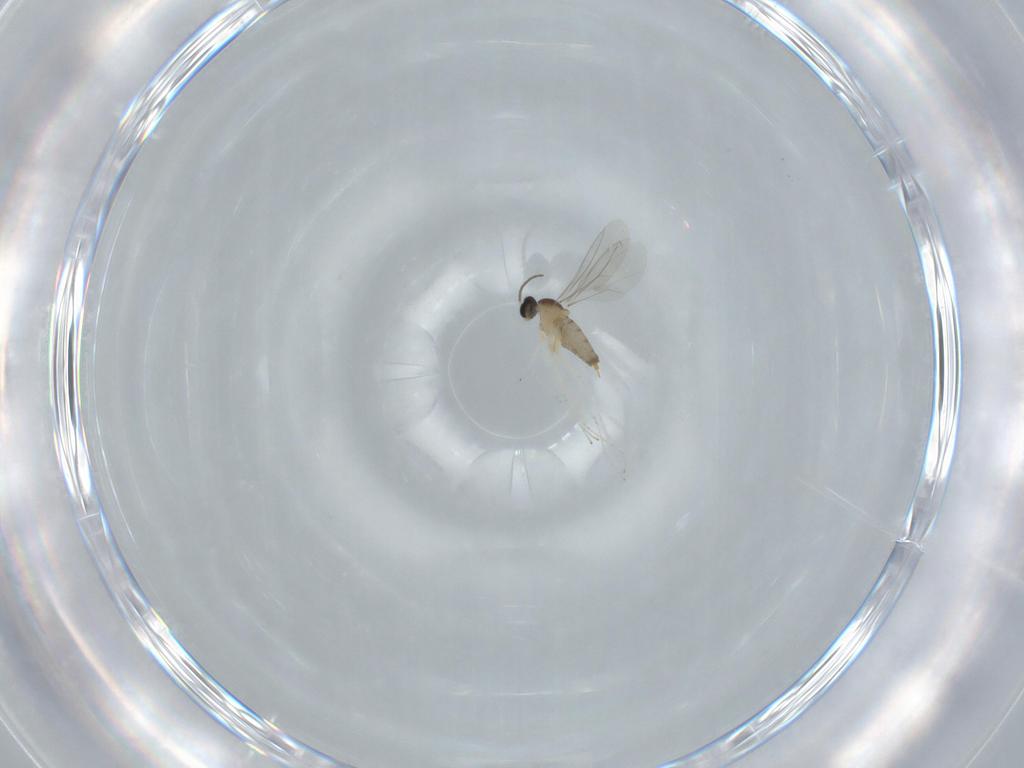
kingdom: Animalia
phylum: Arthropoda
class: Insecta
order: Diptera
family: Cecidomyiidae
